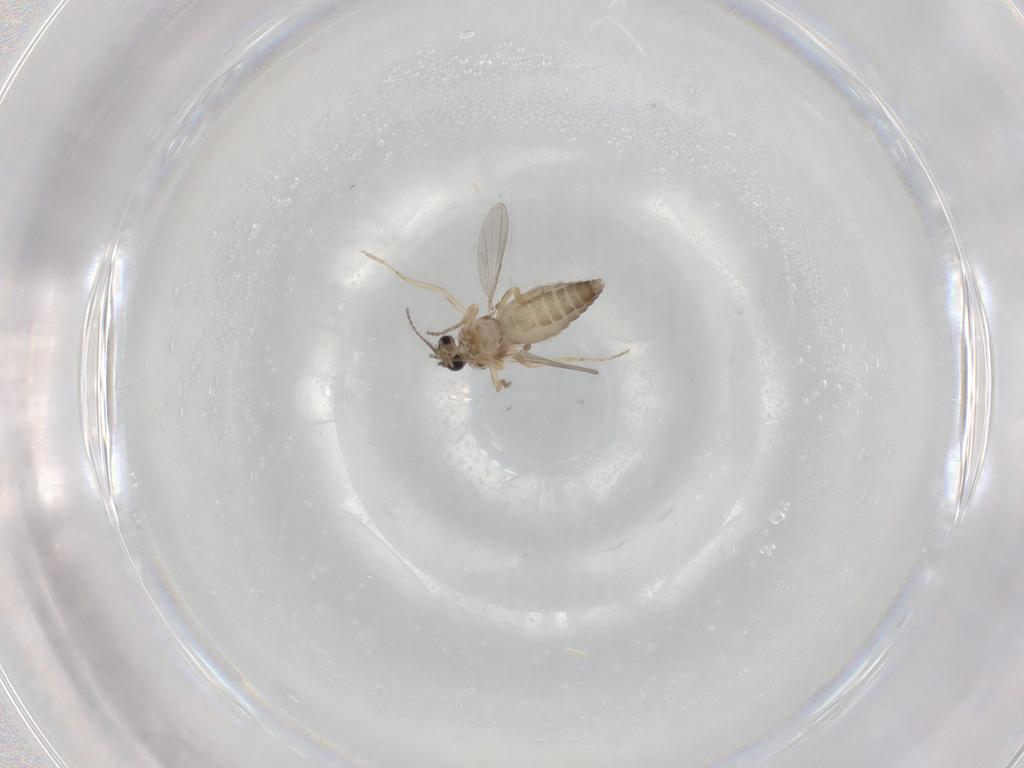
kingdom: Animalia
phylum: Arthropoda
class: Insecta
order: Diptera
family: Ceratopogonidae
